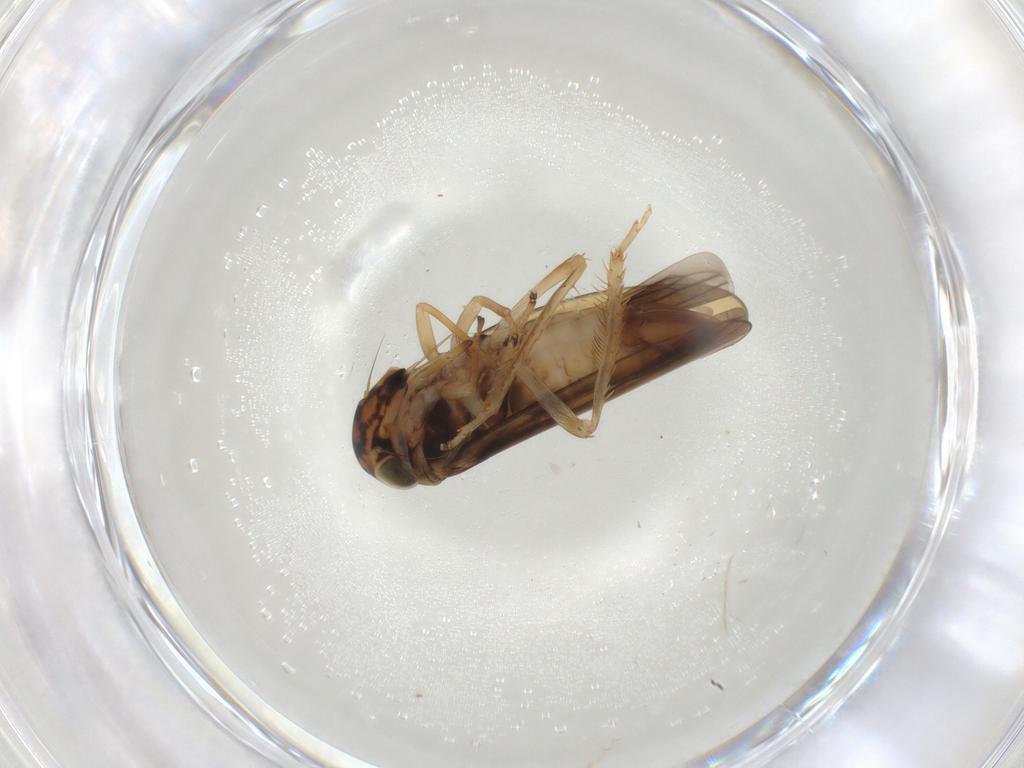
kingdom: Animalia
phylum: Arthropoda
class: Insecta
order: Hemiptera
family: Cicadellidae
